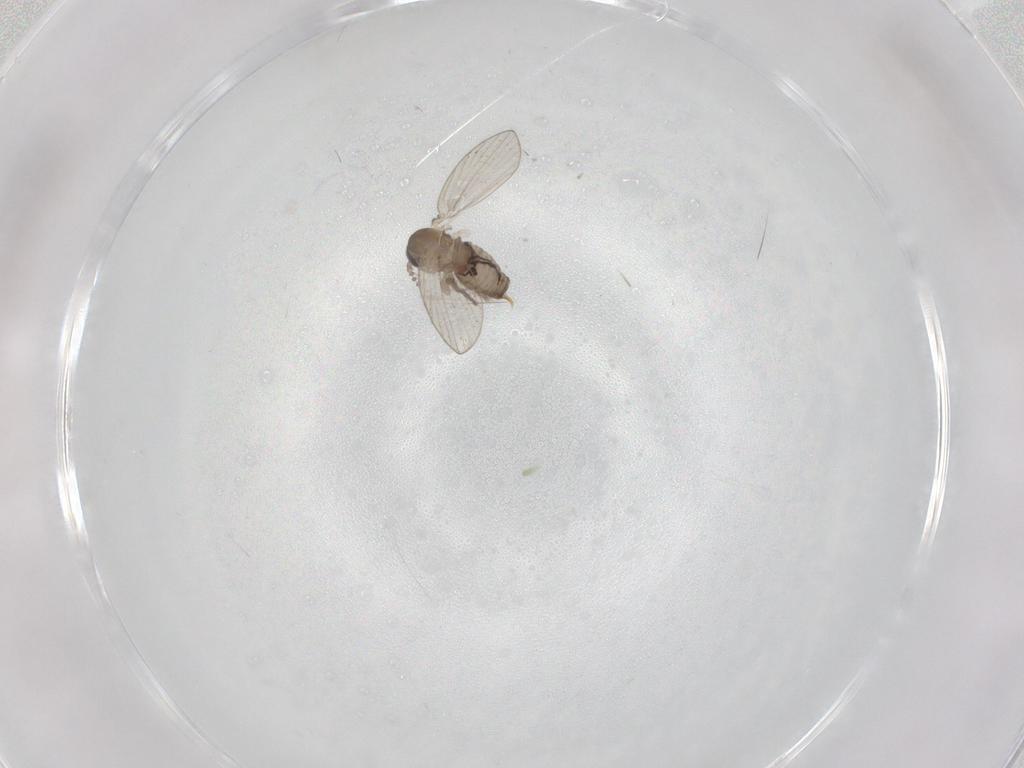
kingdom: Animalia
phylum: Arthropoda
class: Insecta
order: Diptera
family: Psychodidae
